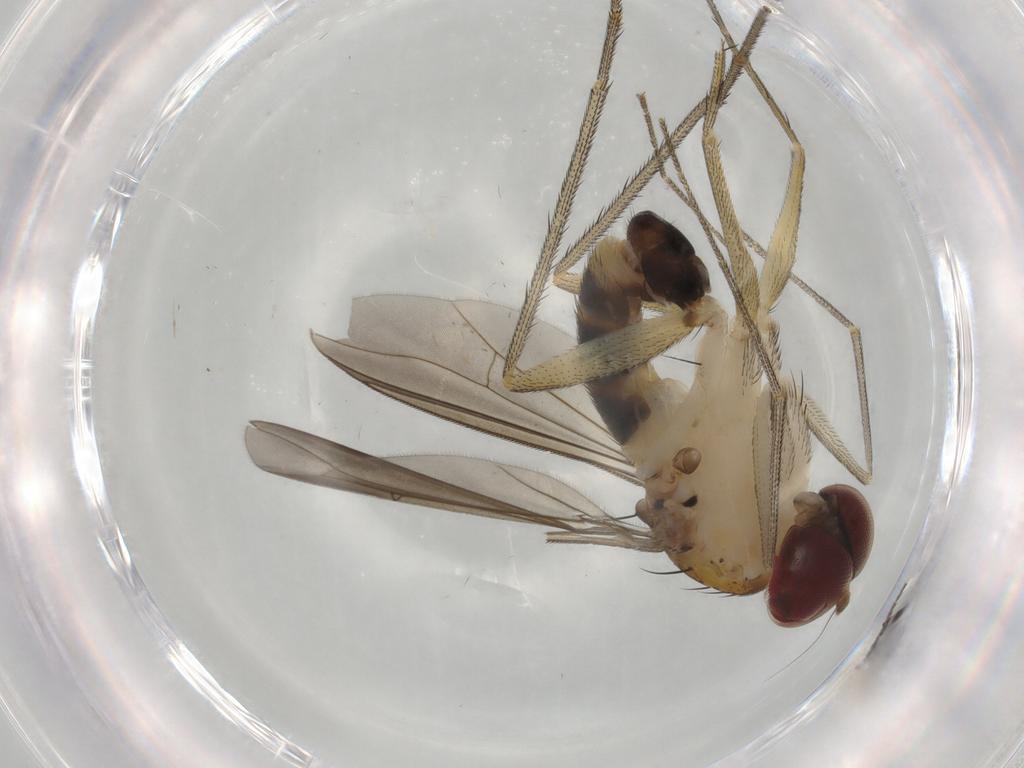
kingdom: Animalia
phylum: Arthropoda
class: Insecta
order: Diptera
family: Dolichopodidae
